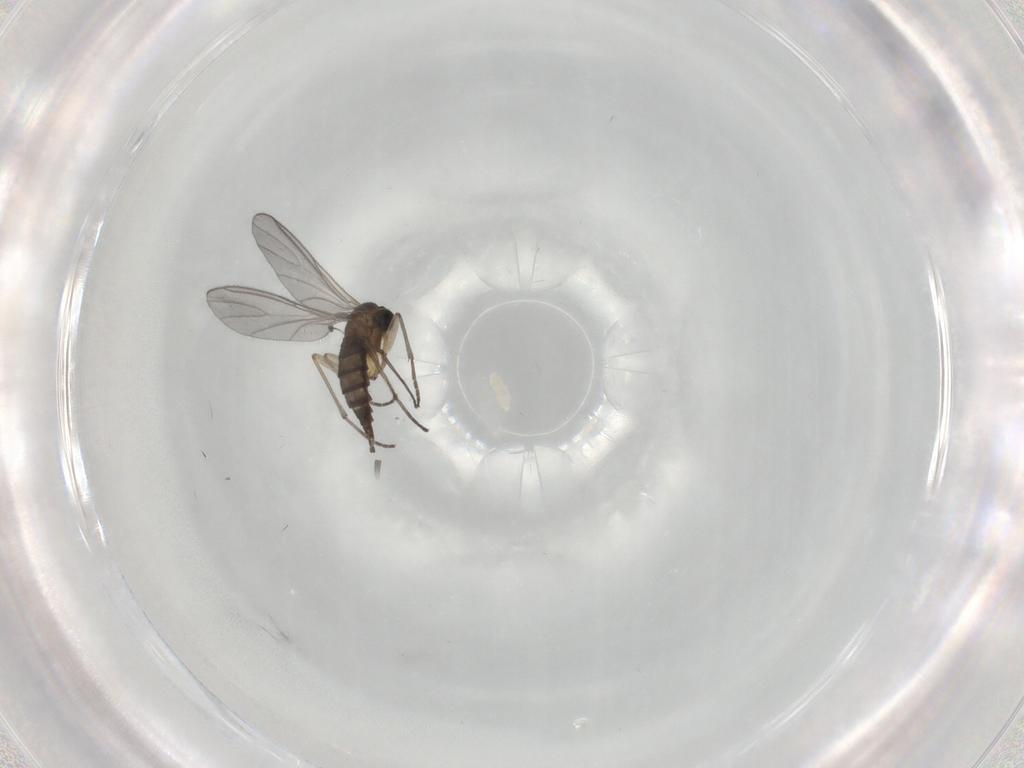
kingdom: Animalia
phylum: Arthropoda
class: Insecta
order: Diptera
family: Sciaridae
